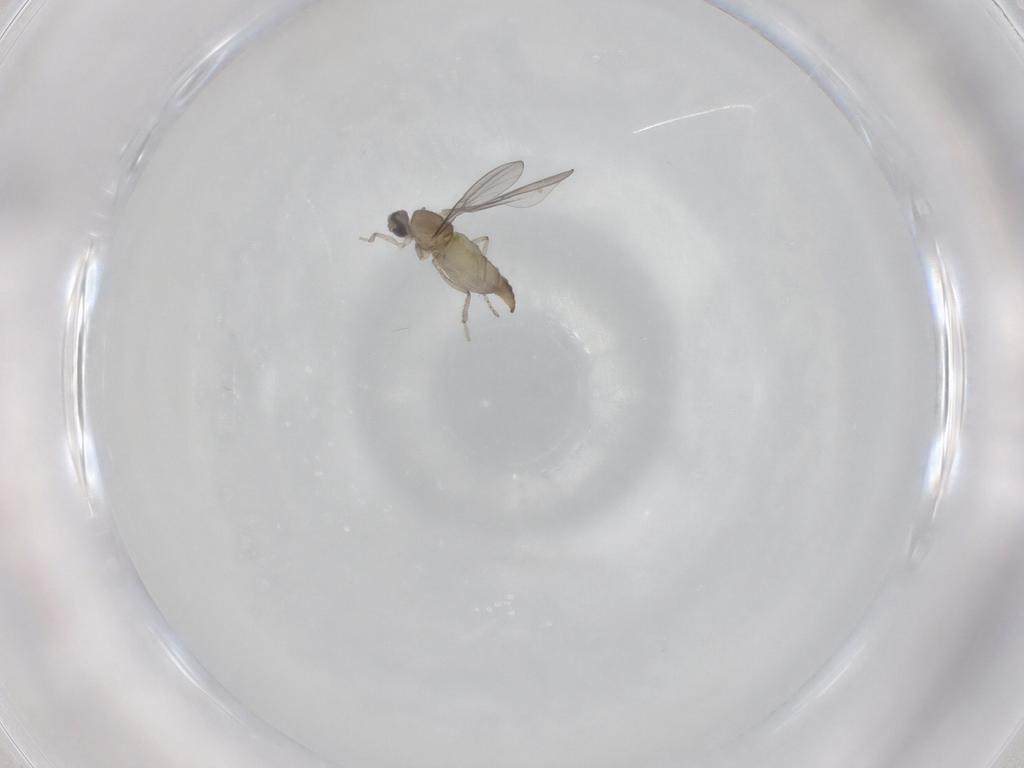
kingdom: Animalia
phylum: Arthropoda
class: Insecta
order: Diptera
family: Cecidomyiidae
